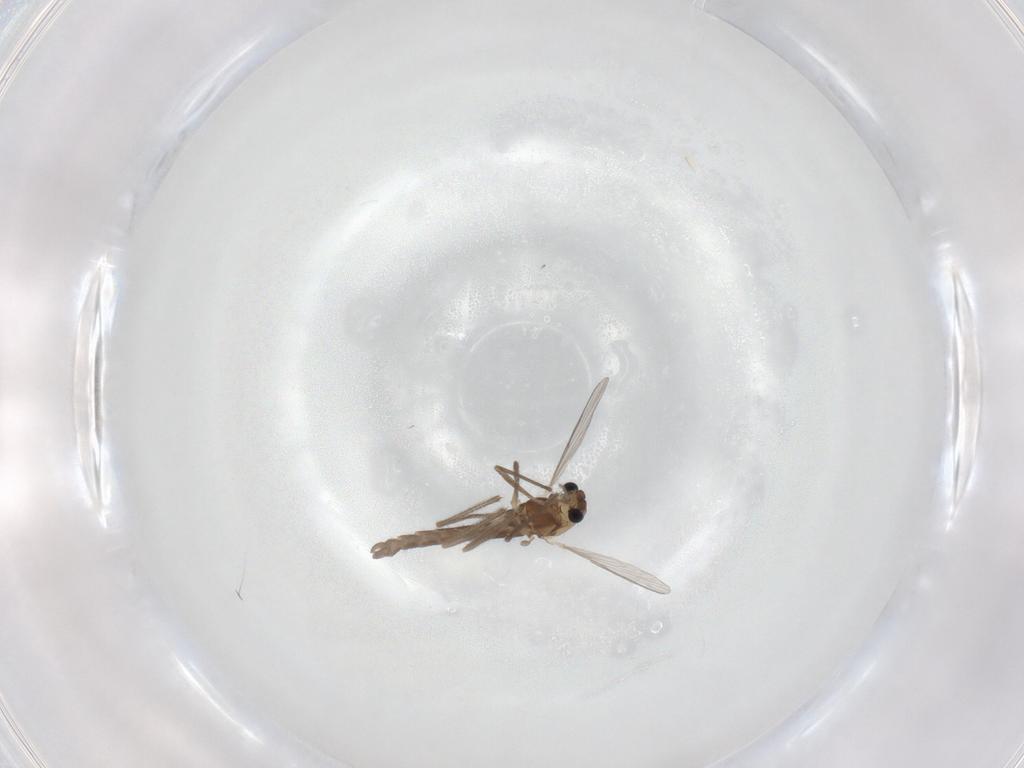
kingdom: Animalia
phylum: Arthropoda
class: Insecta
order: Diptera
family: Chironomidae
